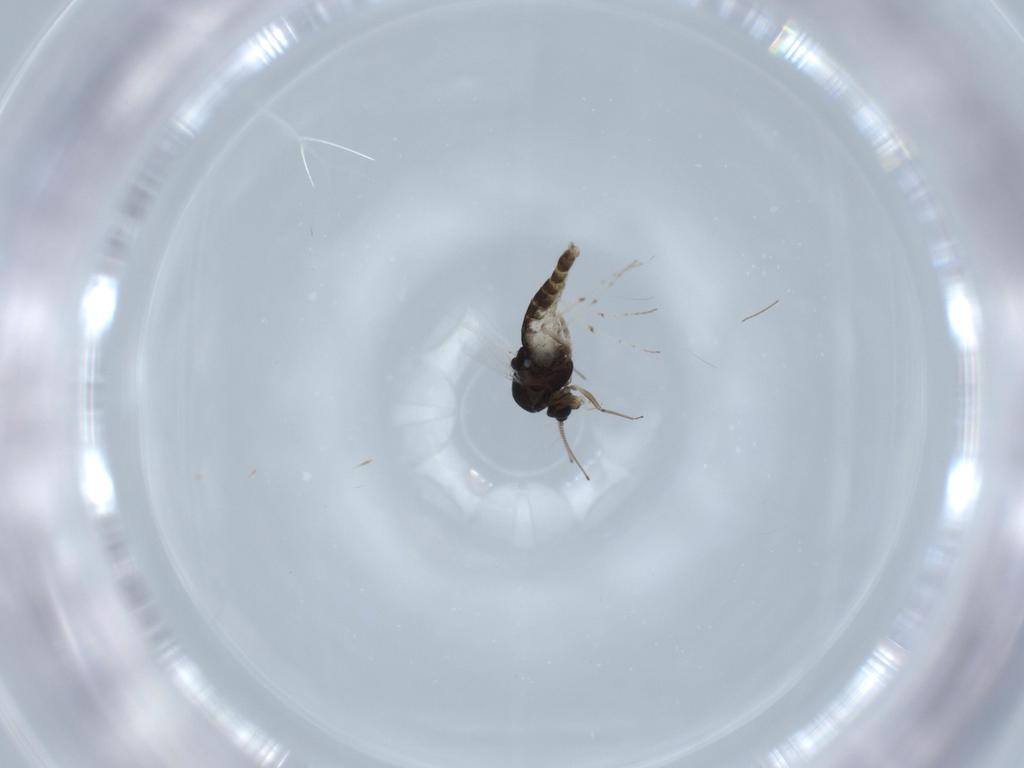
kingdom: Animalia
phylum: Arthropoda
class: Insecta
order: Diptera
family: Chironomidae
